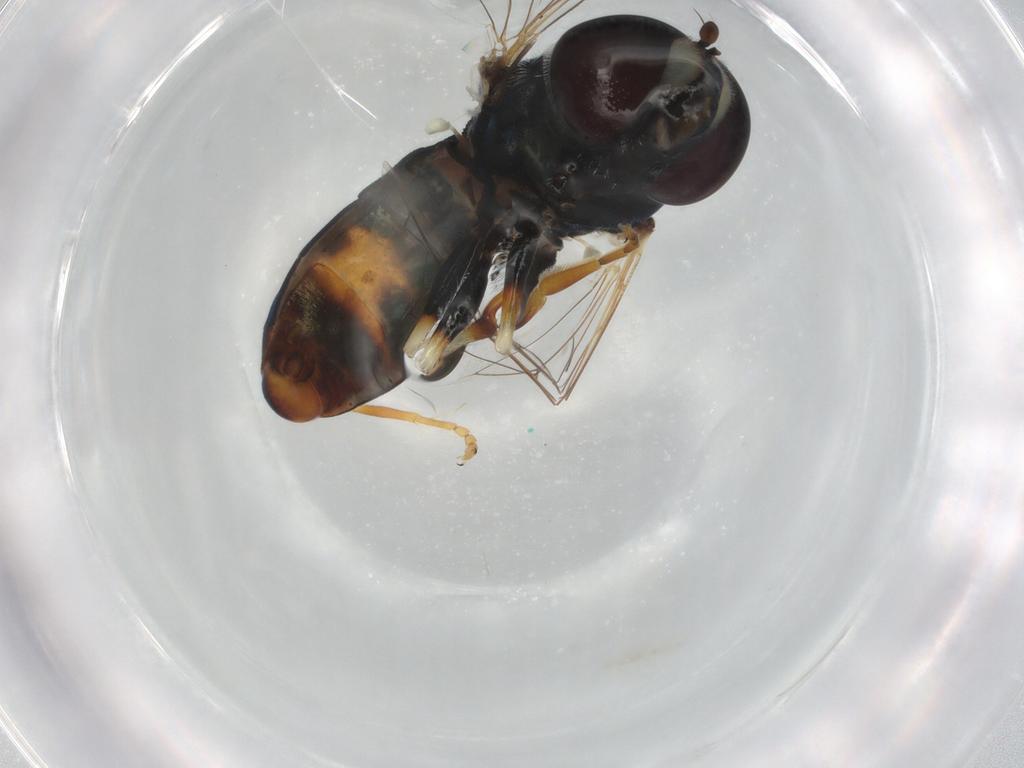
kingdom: Animalia
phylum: Arthropoda
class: Insecta
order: Diptera
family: Syrphidae
